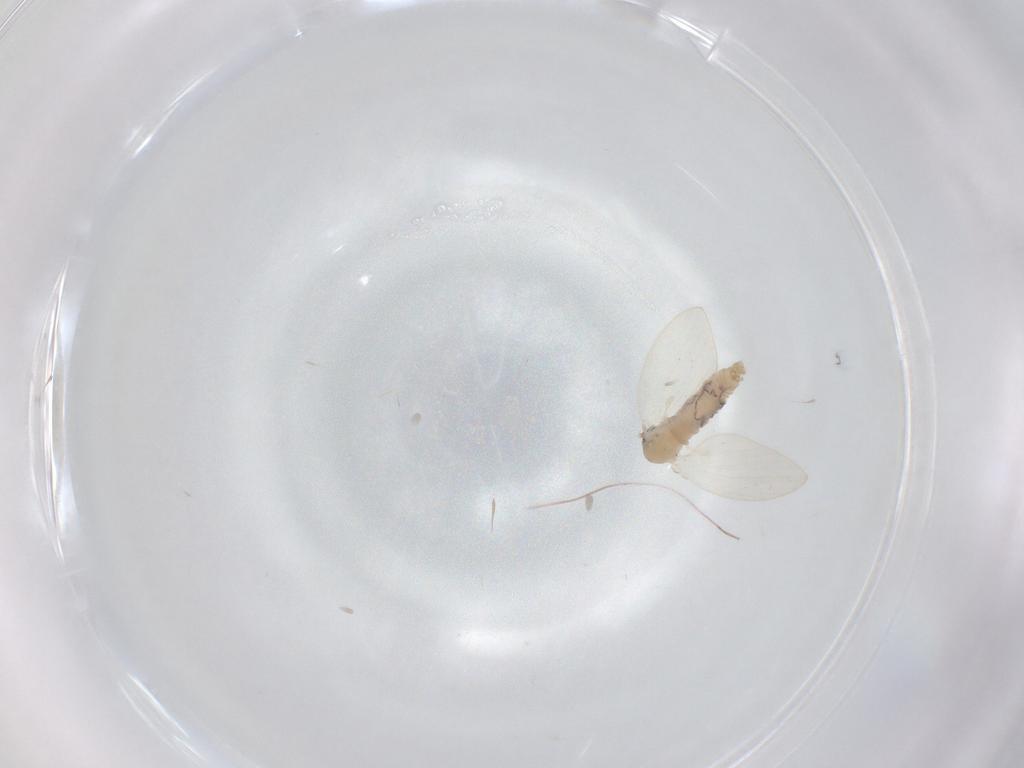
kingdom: Animalia
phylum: Arthropoda
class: Insecta
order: Diptera
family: Psychodidae
